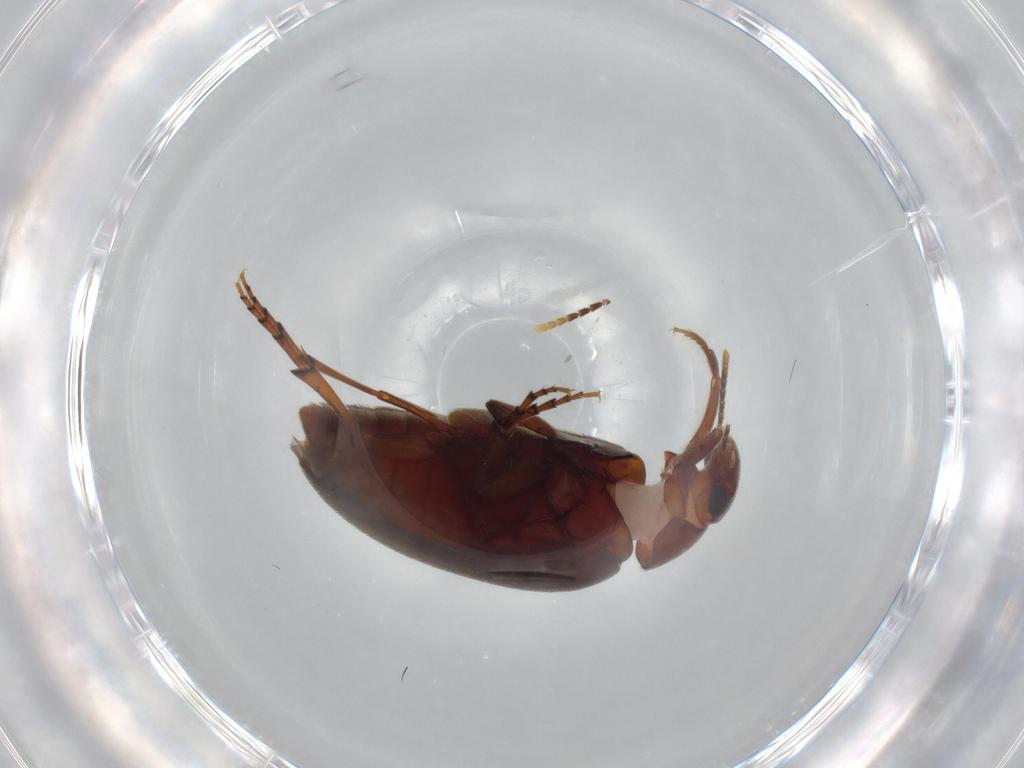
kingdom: Animalia
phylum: Arthropoda
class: Insecta
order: Coleoptera
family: Eucinetidae
